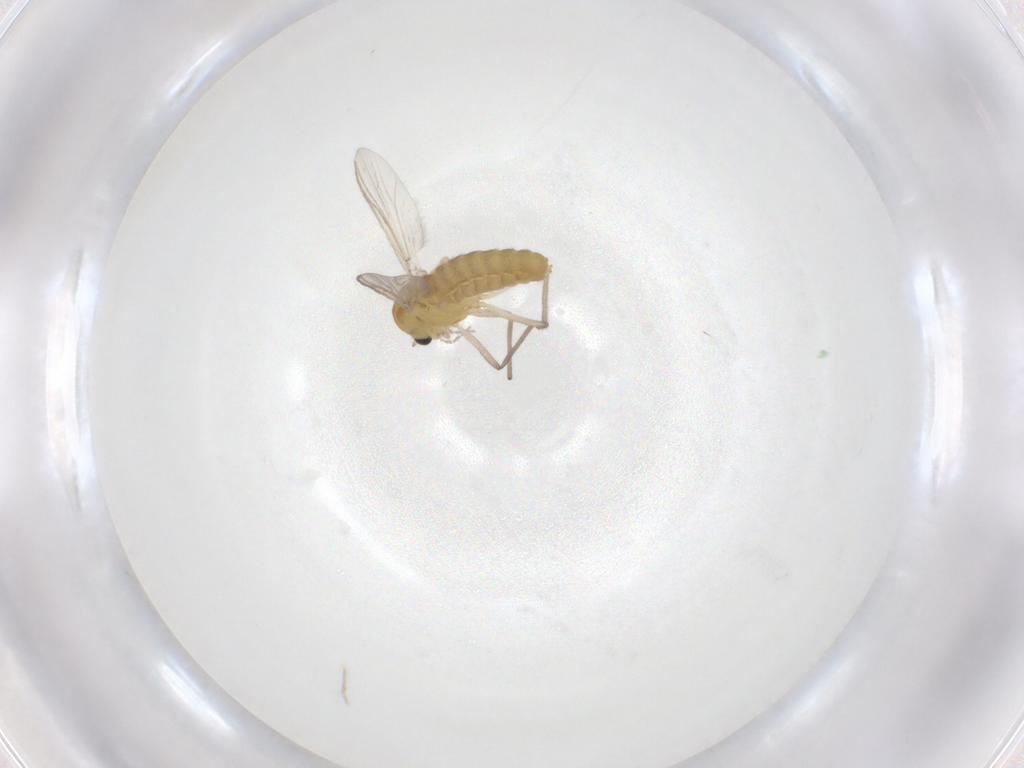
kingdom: Animalia
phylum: Arthropoda
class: Insecta
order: Diptera
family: Chironomidae
